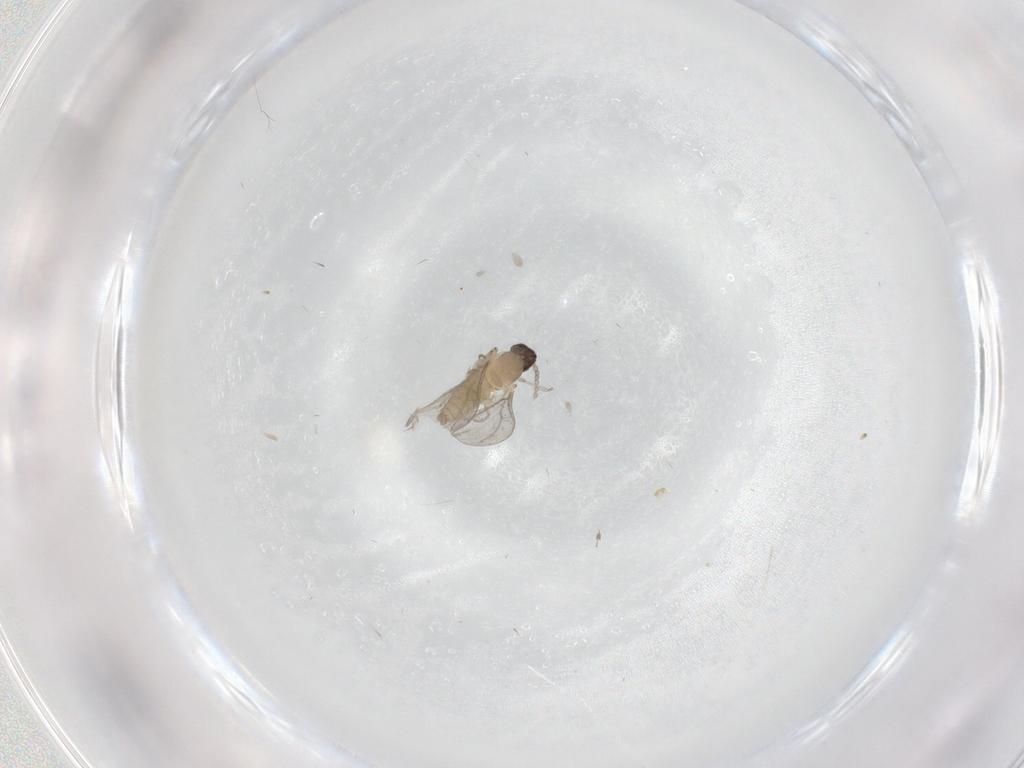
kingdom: Animalia
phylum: Arthropoda
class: Insecta
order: Diptera
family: Cecidomyiidae
